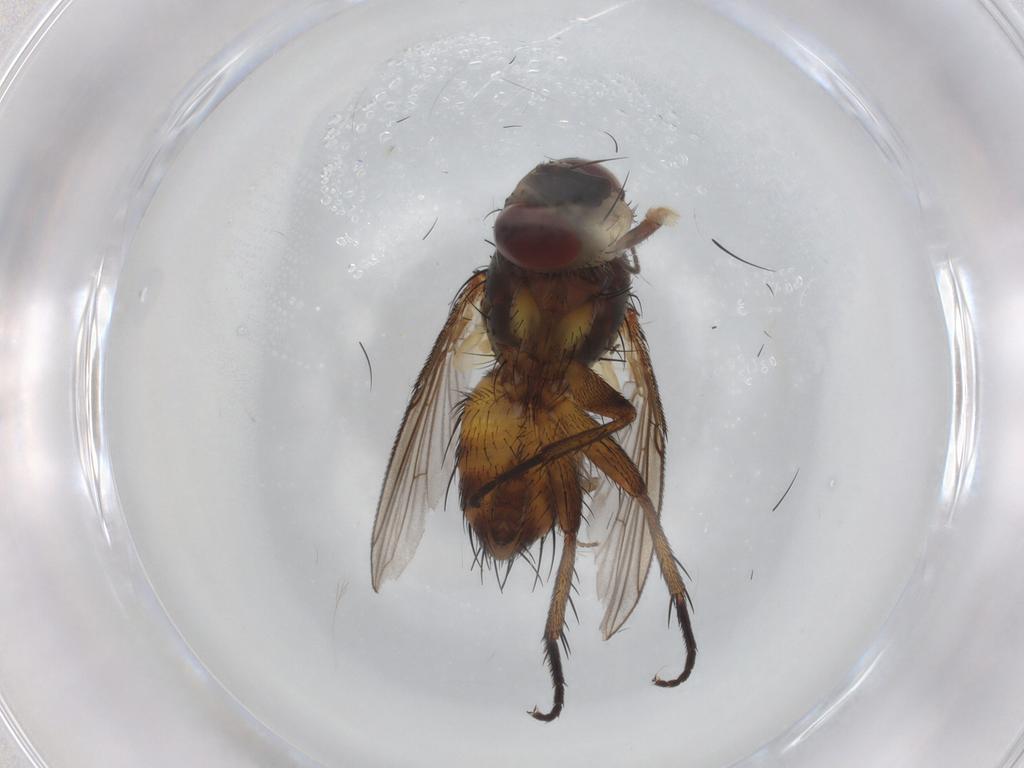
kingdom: Animalia
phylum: Arthropoda
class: Insecta
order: Diptera
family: Tachinidae
